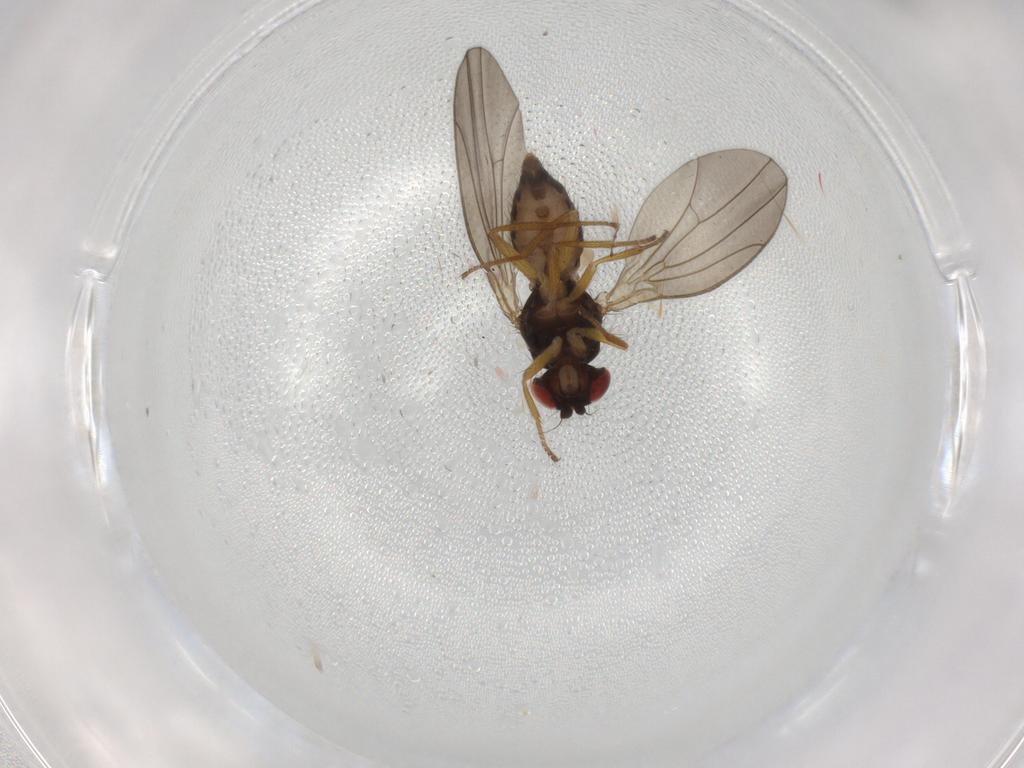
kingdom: Animalia
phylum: Arthropoda
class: Insecta
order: Diptera
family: Drosophilidae
